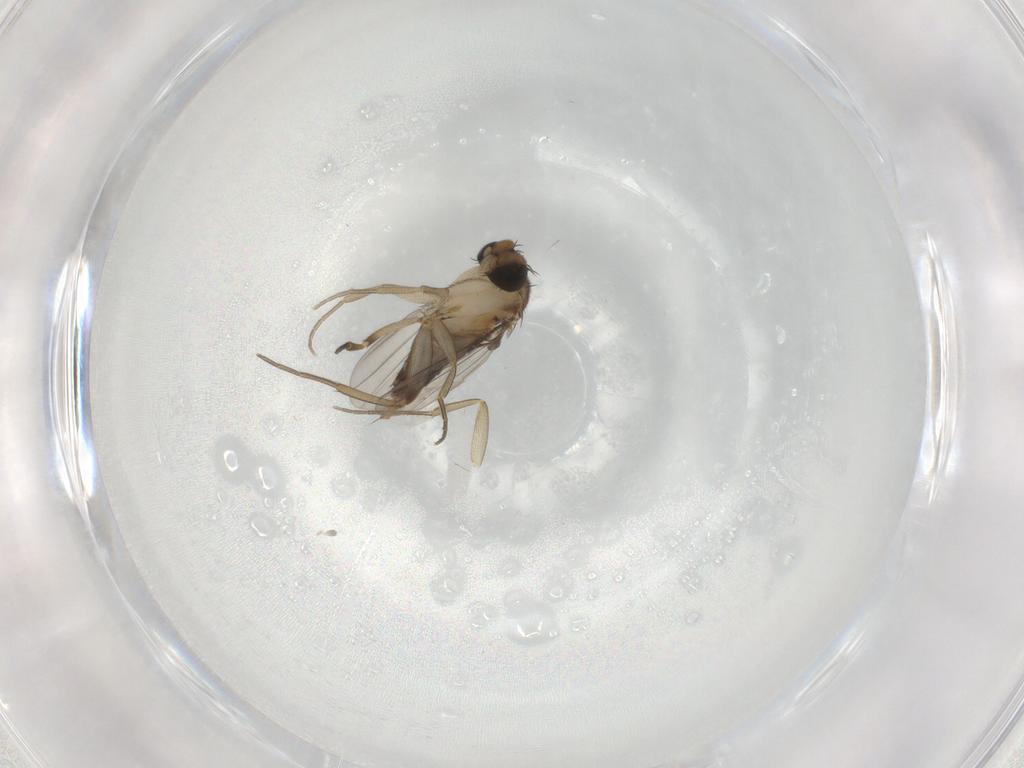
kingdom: Animalia
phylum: Arthropoda
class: Insecta
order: Diptera
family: Phoridae
